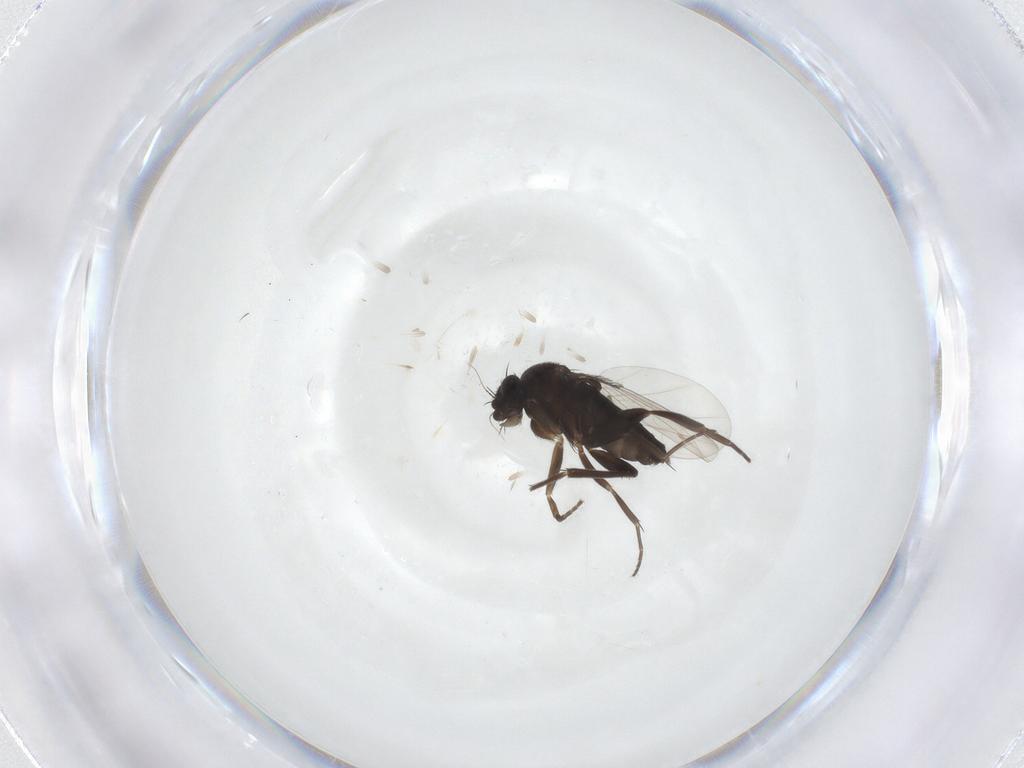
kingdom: Animalia
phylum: Arthropoda
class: Insecta
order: Diptera
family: Phoridae
